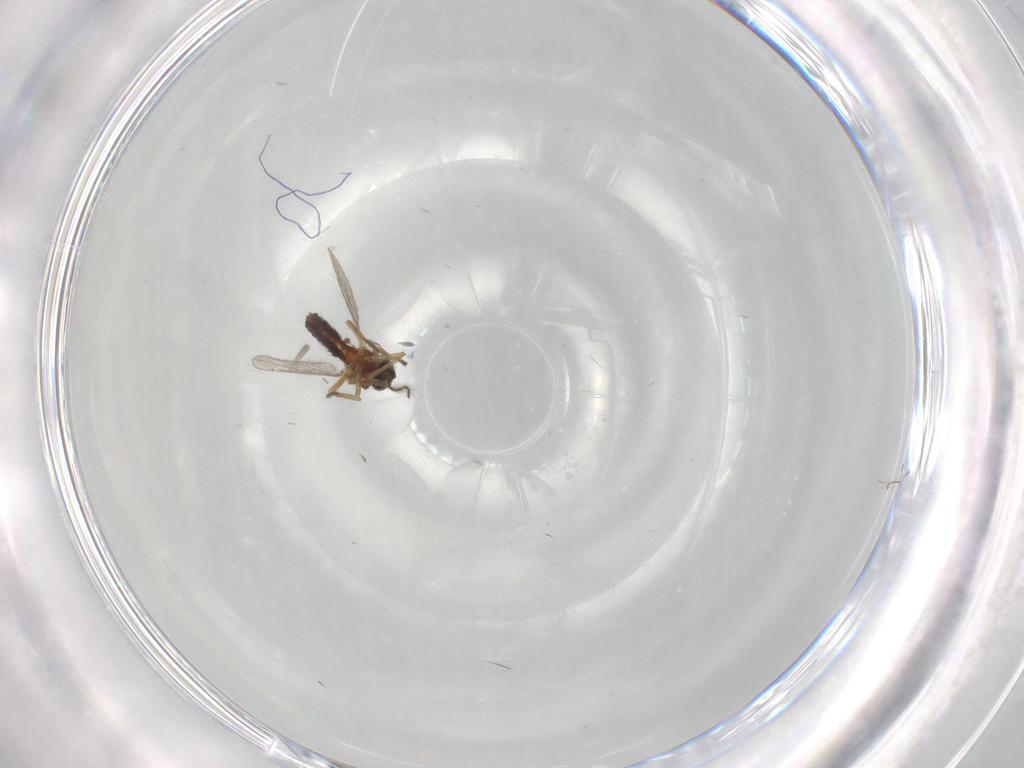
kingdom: Animalia
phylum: Arthropoda
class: Insecta
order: Diptera
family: Ceratopogonidae
